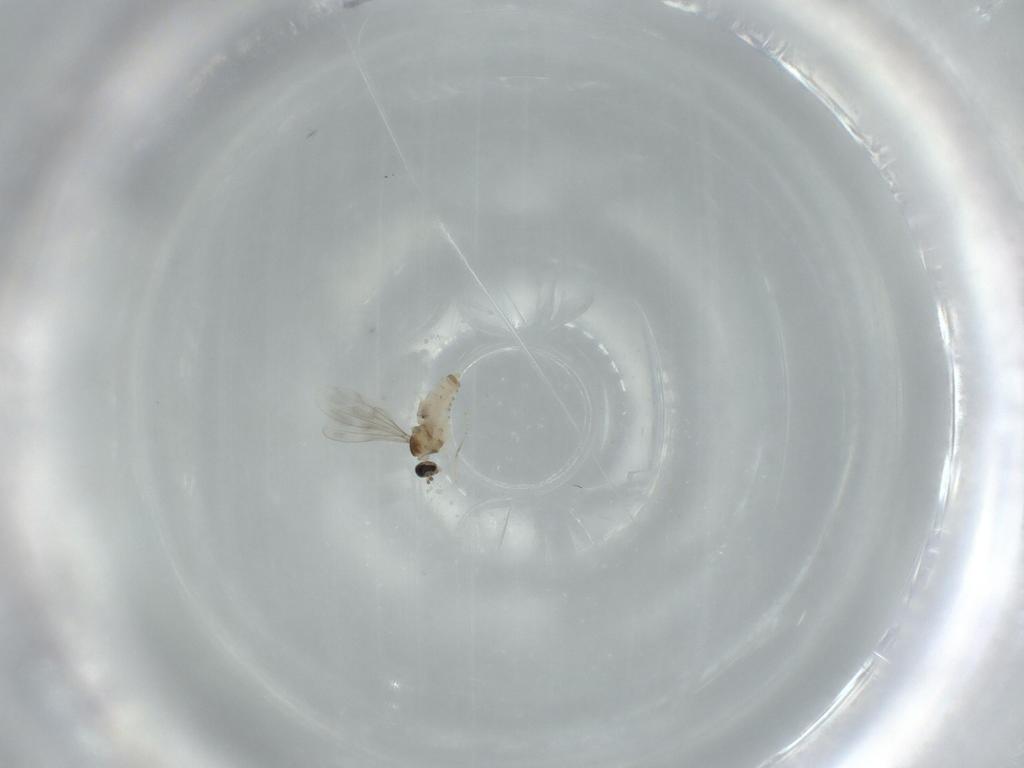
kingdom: Animalia
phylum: Arthropoda
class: Insecta
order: Diptera
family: Cecidomyiidae
